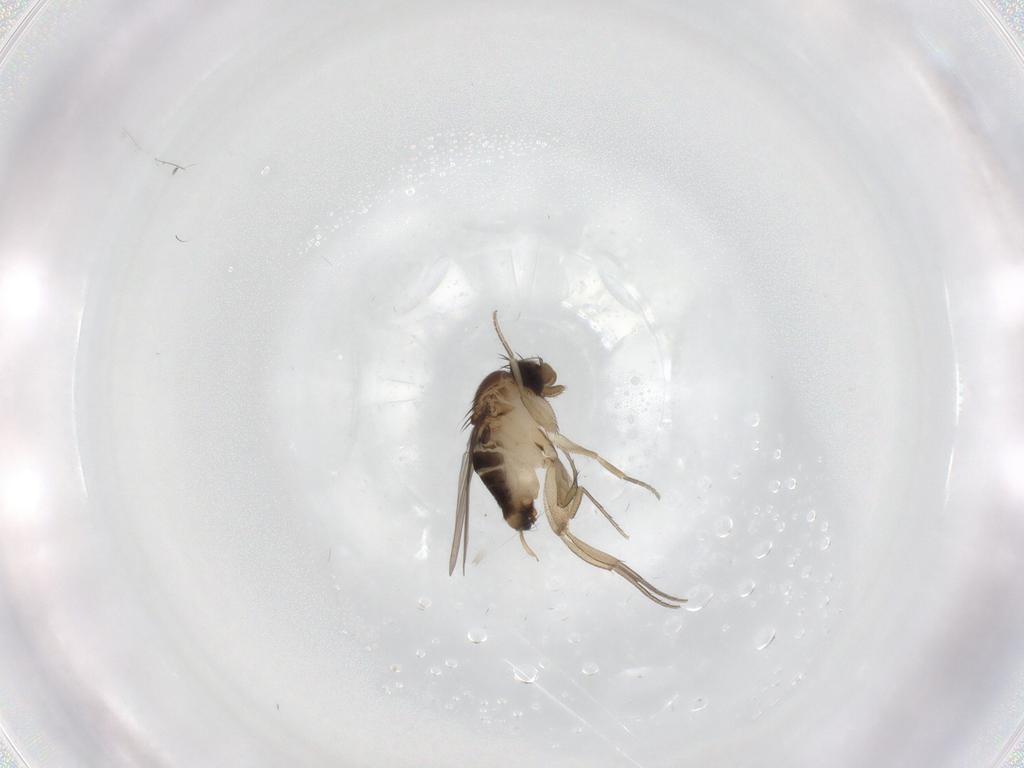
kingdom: Animalia
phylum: Arthropoda
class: Insecta
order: Diptera
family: Phoridae
